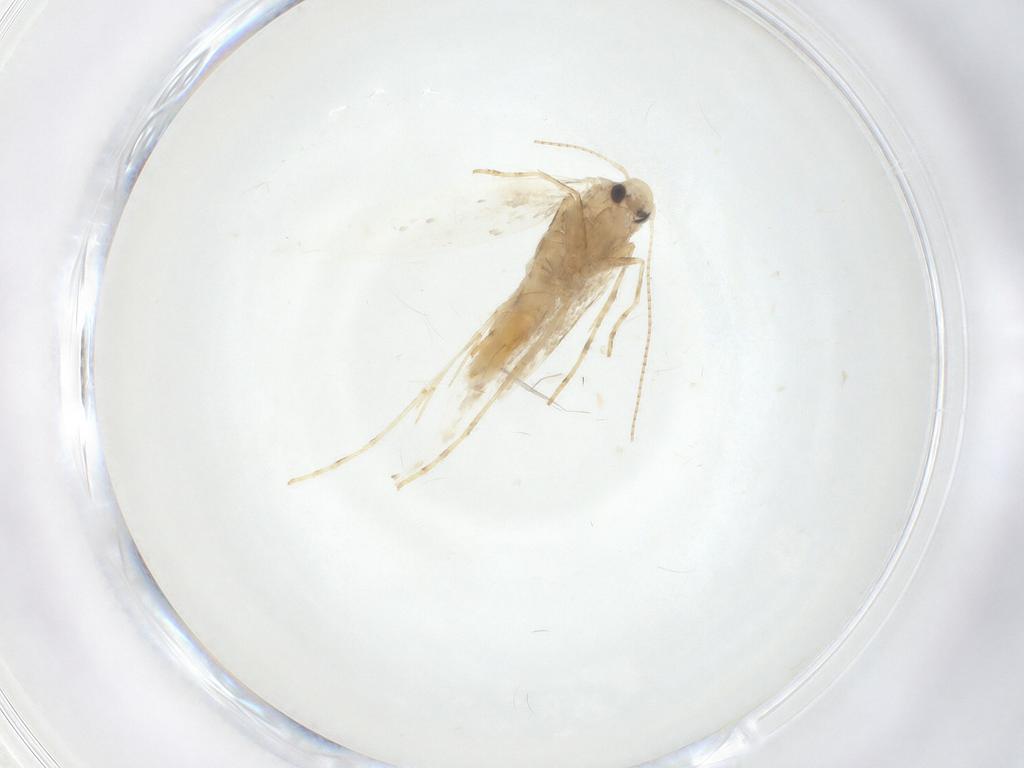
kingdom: Animalia
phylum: Arthropoda
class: Insecta
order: Lepidoptera
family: Gracillariidae
